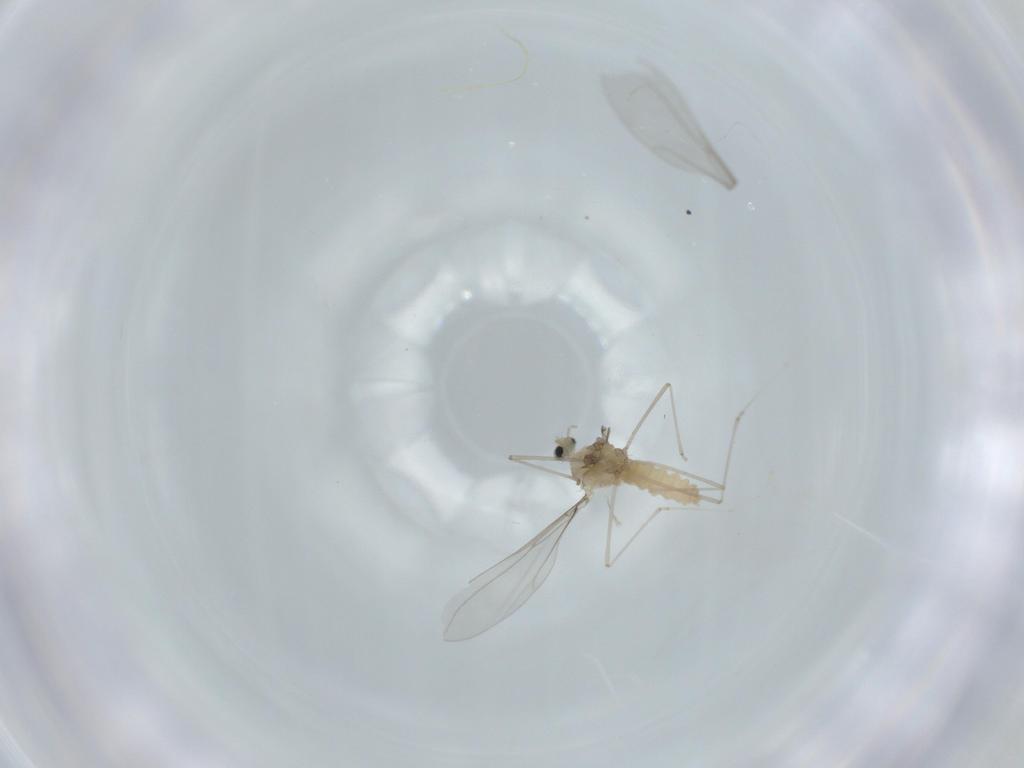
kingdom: Animalia
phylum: Arthropoda
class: Insecta
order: Diptera
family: Cecidomyiidae
